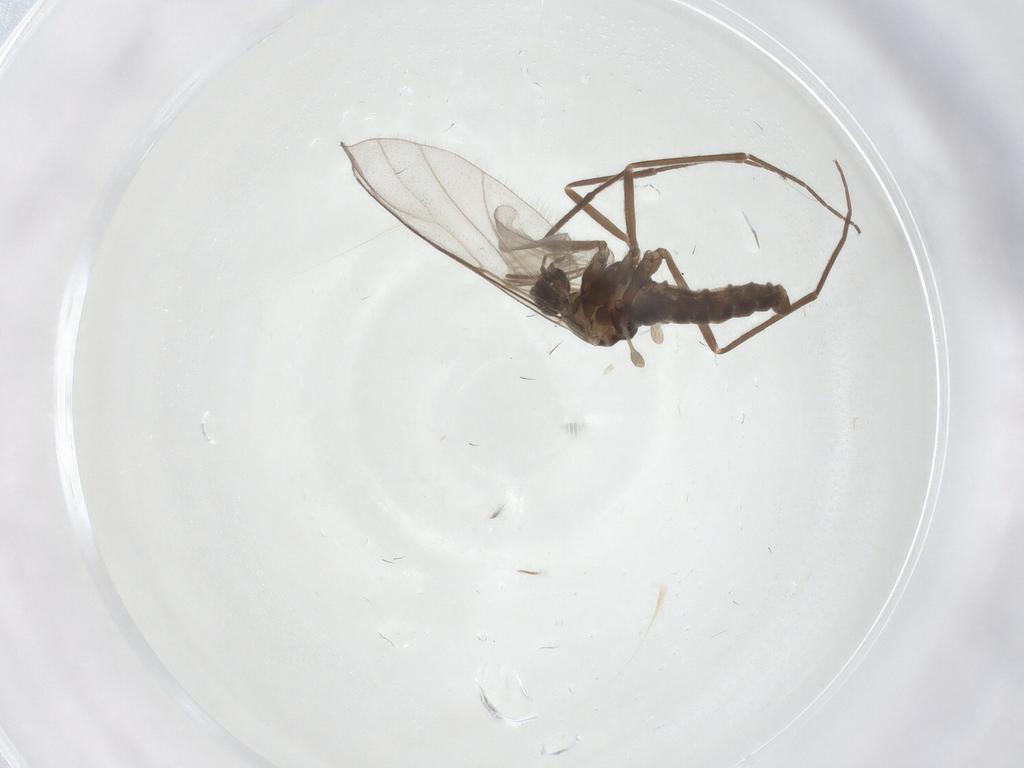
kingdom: Animalia
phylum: Arthropoda
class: Insecta
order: Diptera
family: Cecidomyiidae
